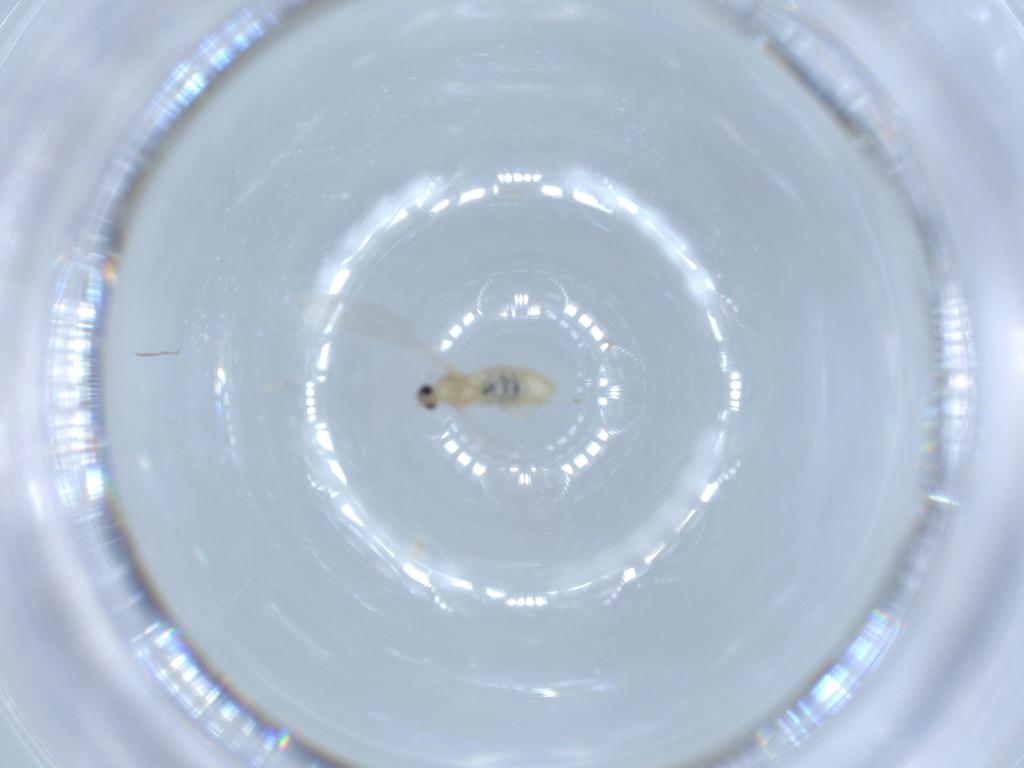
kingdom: Animalia
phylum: Arthropoda
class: Insecta
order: Diptera
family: Cecidomyiidae
